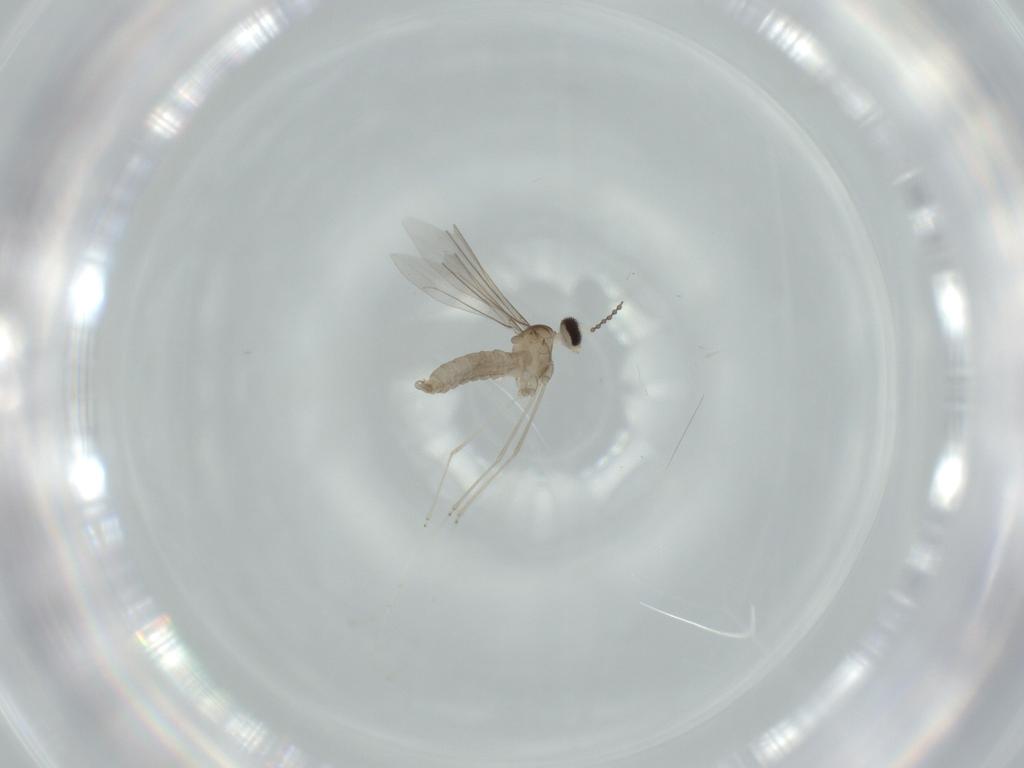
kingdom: Animalia
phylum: Arthropoda
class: Insecta
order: Diptera
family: Cecidomyiidae
